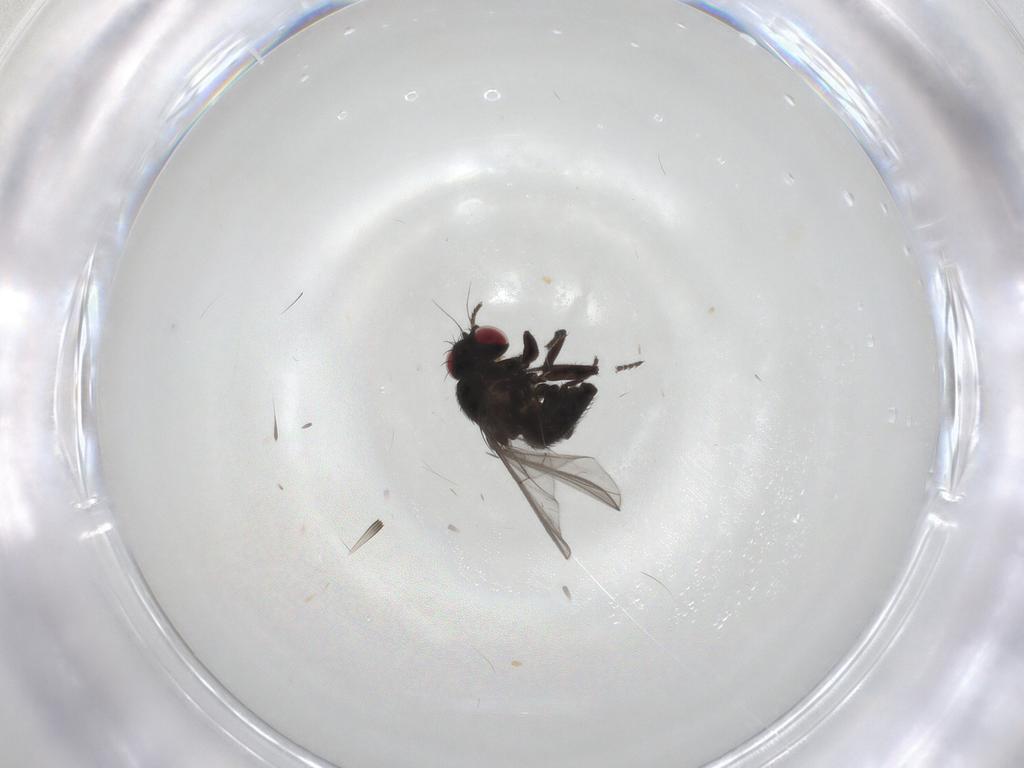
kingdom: Animalia
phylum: Arthropoda
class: Insecta
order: Diptera
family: Agromyzidae
